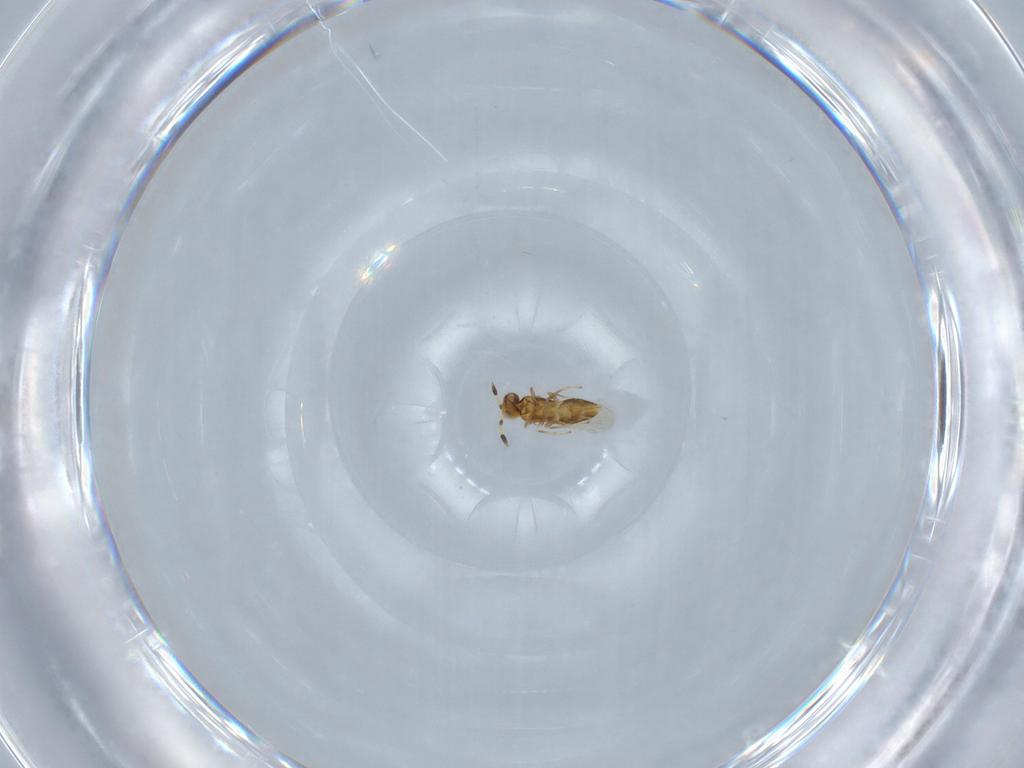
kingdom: Animalia
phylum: Arthropoda
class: Insecta
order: Hymenoptera
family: Aphelinidae
